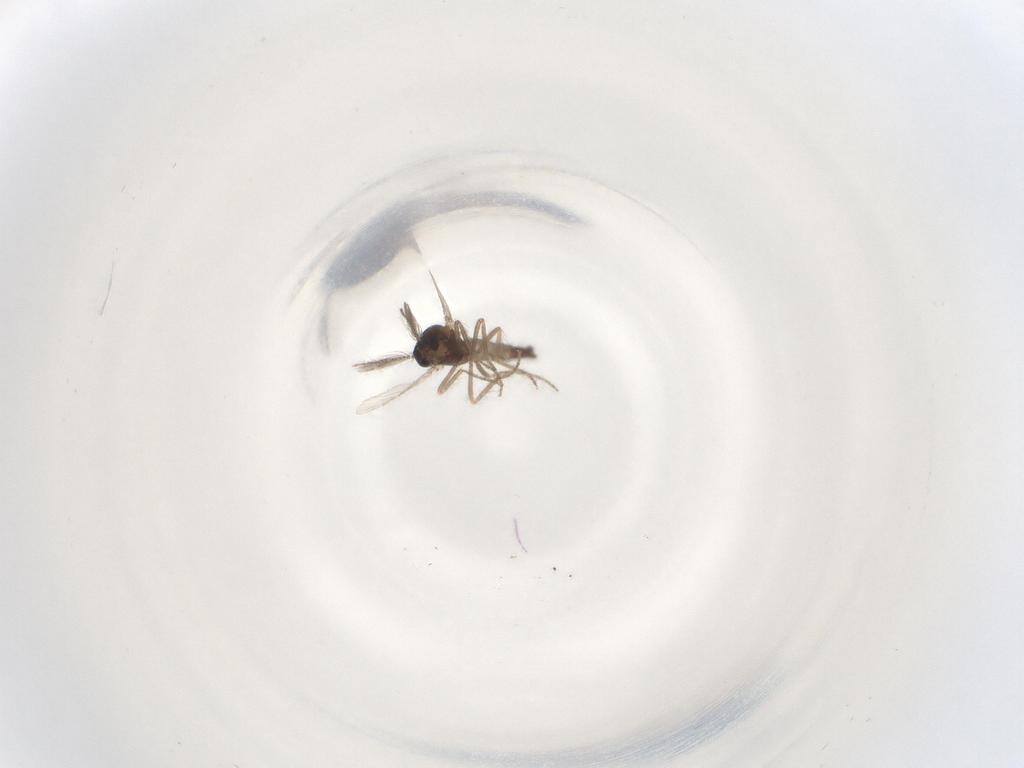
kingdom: Animalia
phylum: Arthropoda
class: Insecta
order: Diptera
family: Ceratopogonidae
